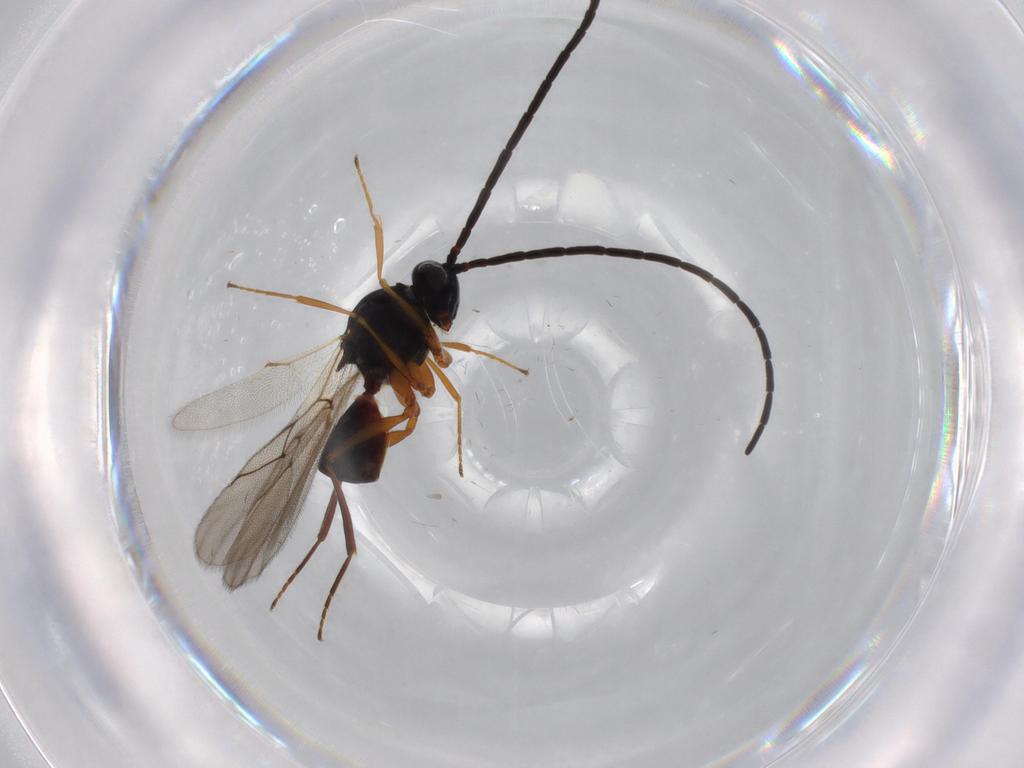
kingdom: Animalia
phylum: Arthropoda
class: Insecta
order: Hymenoptera
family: Figitidae
